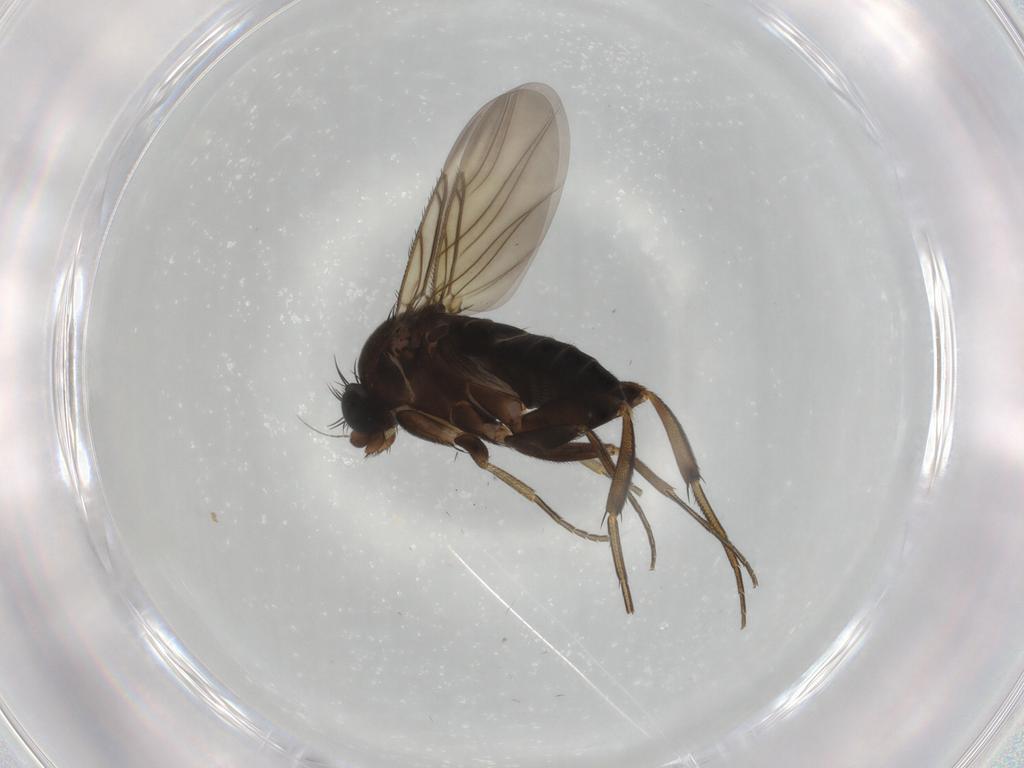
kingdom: Animalia
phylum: Arthropoda
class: Insecta
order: Diptera
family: Phoridae
